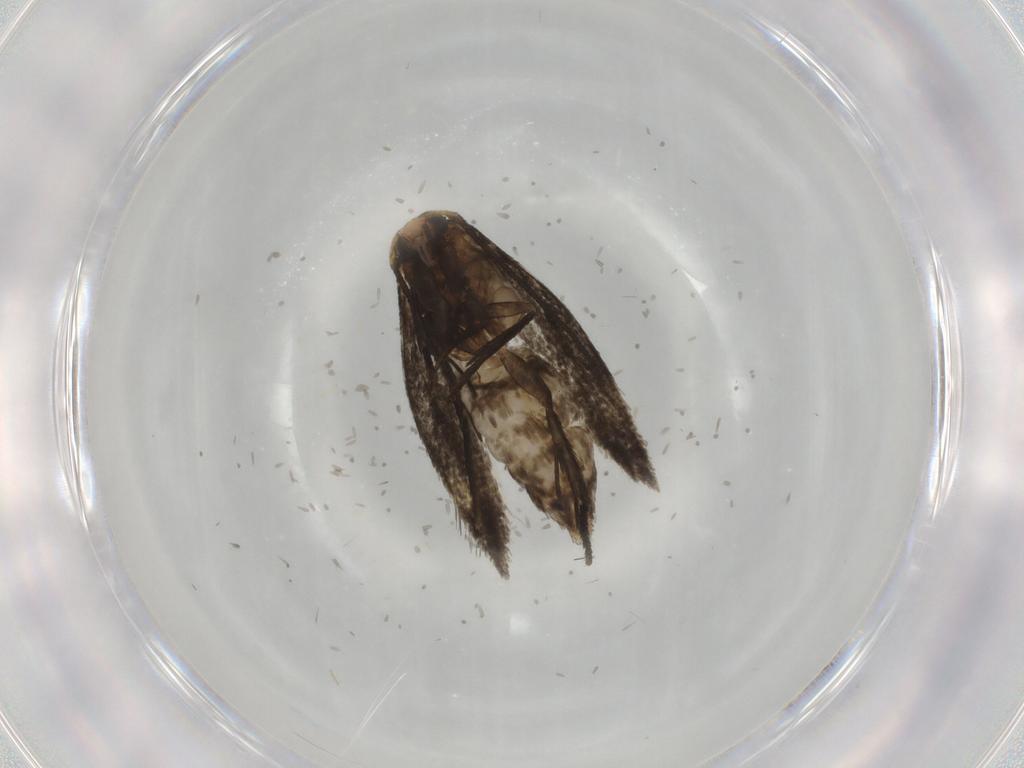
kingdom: Animalia
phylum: Arthropoda
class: Insecta
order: Lepidoptera
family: Nepticulidae
